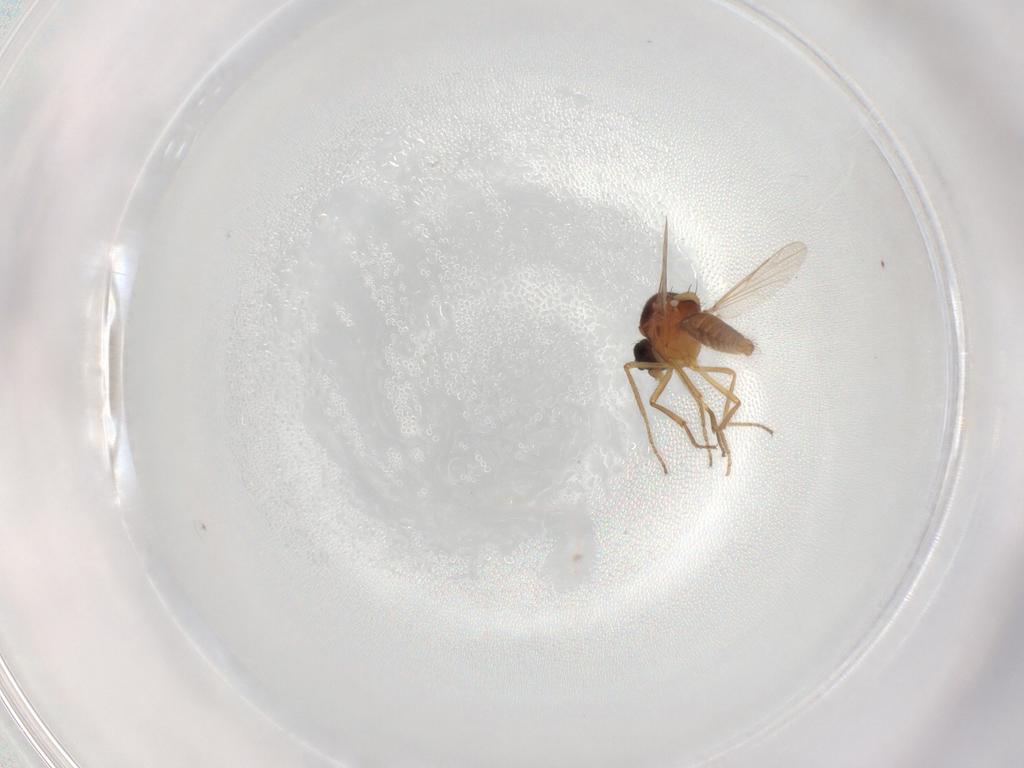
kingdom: Animalia
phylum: Arthropoda
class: Insecta
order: Diptera
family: Ceratopogonidae
